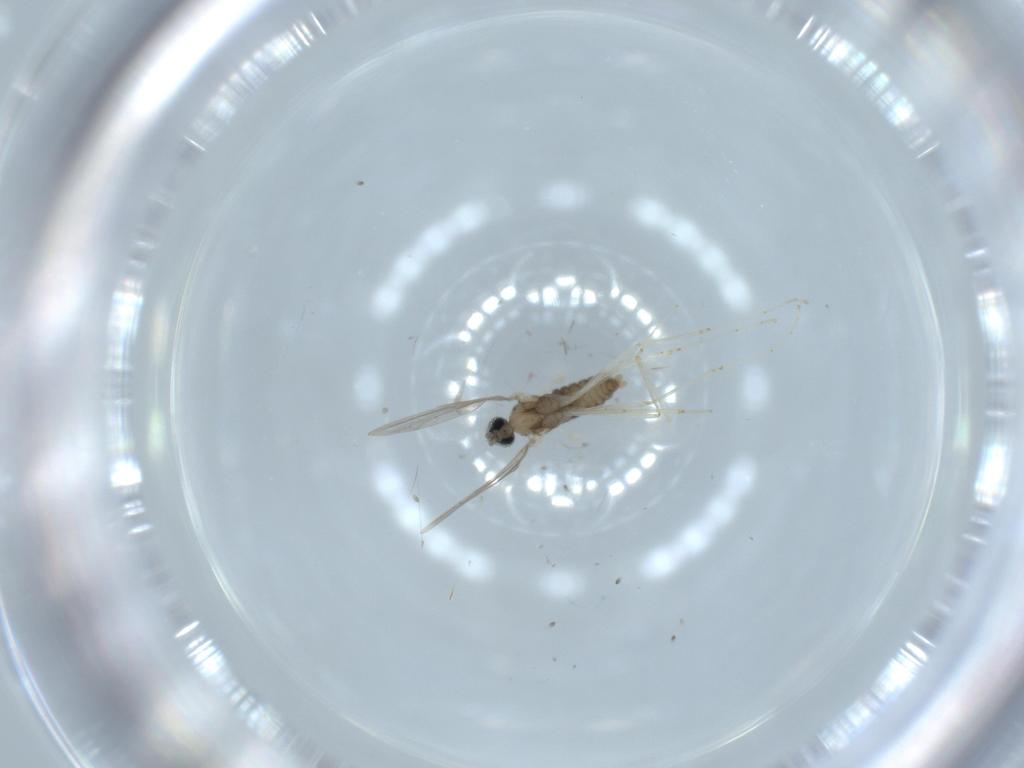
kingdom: Animalia
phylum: Arthropoda
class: Insecta
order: Diptera
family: Cecidomyiidae
